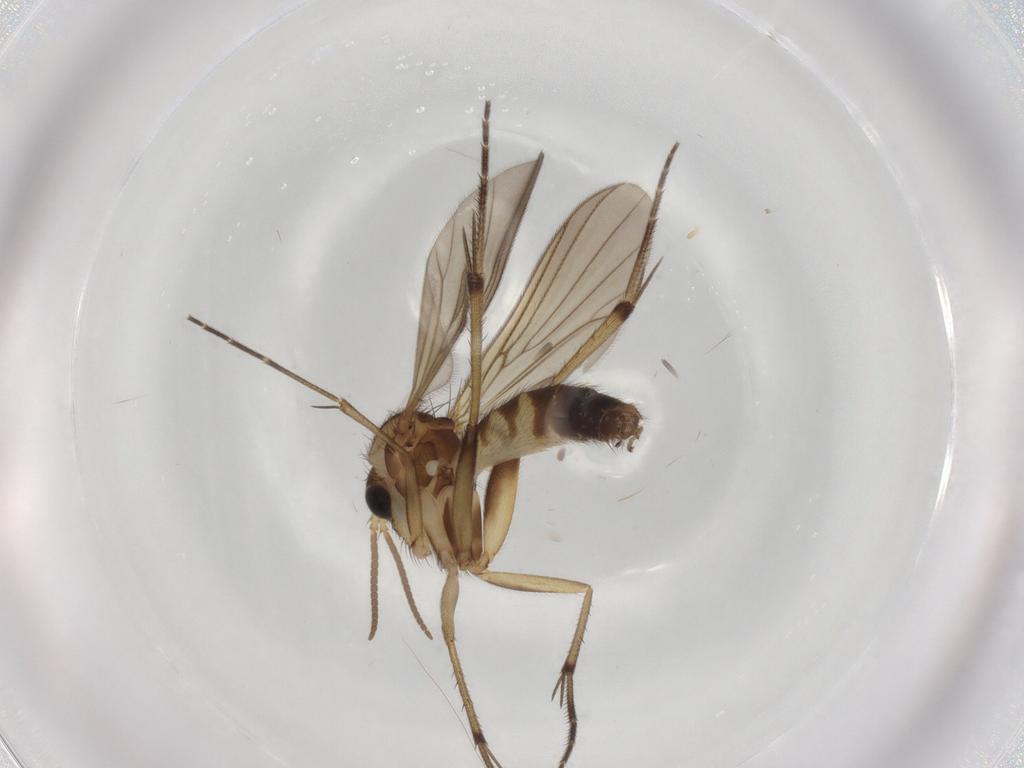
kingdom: Animalia
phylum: Arthropoda
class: Insecta
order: Diptera
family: Mycetophilidae
